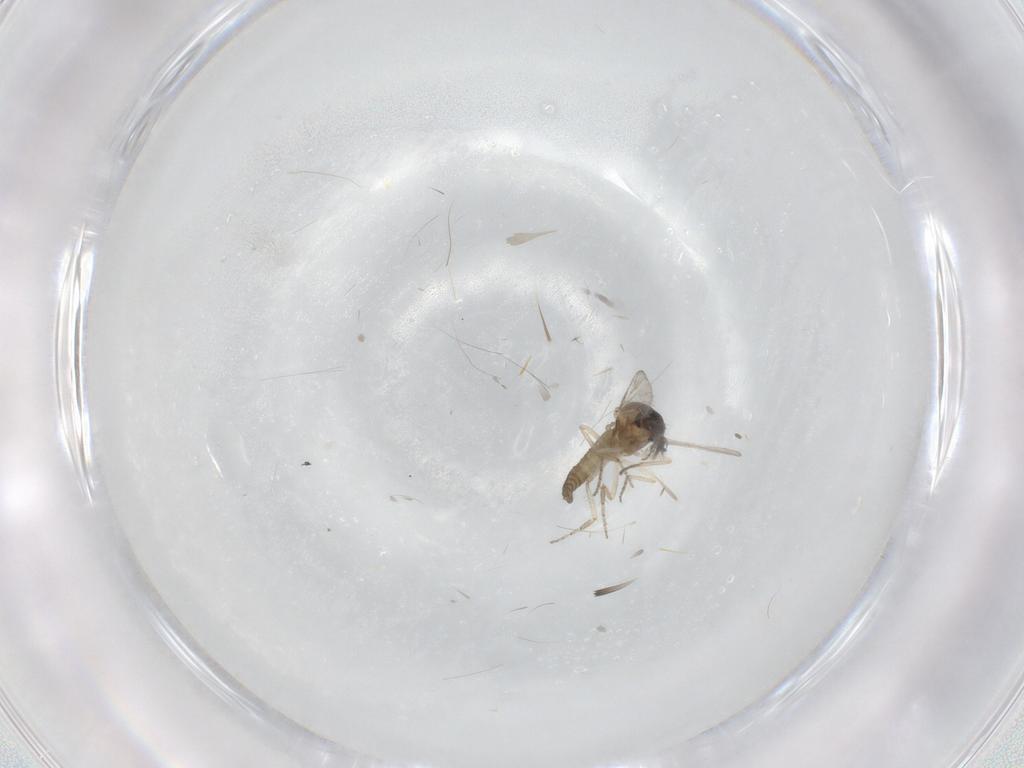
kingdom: Animalia
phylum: Arthropoda
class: Insecta
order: Diptera
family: Ceratopogonidae
